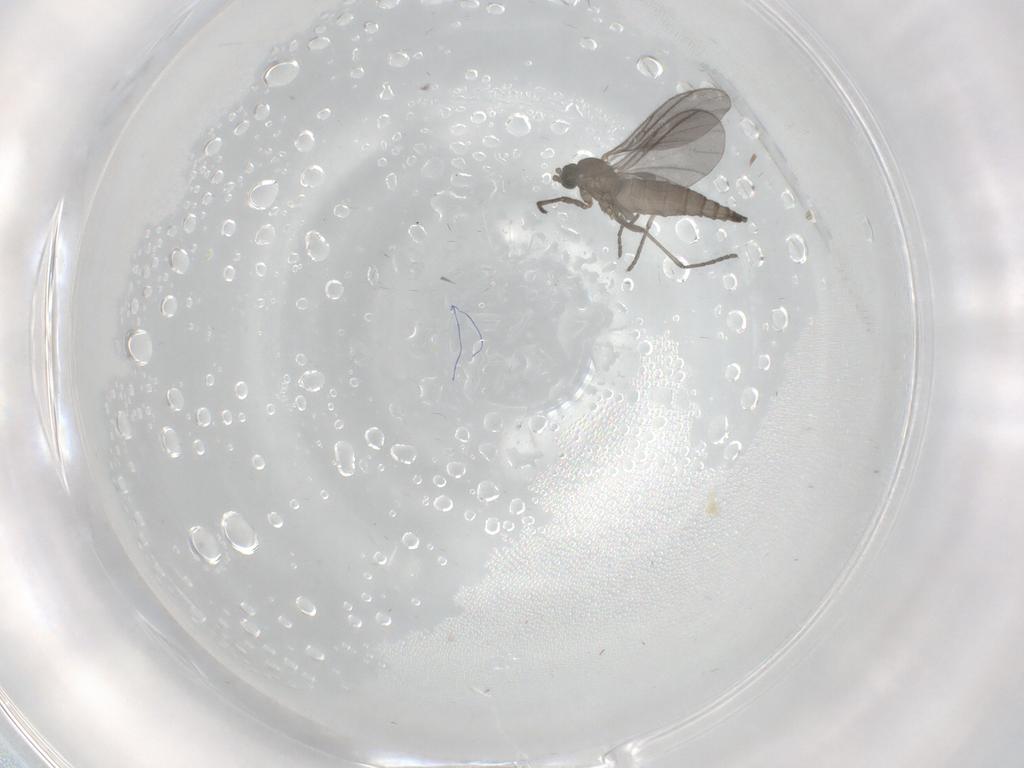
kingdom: Animalia
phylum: Arthropoda
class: Insecta
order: Diptera
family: Sciaridae
